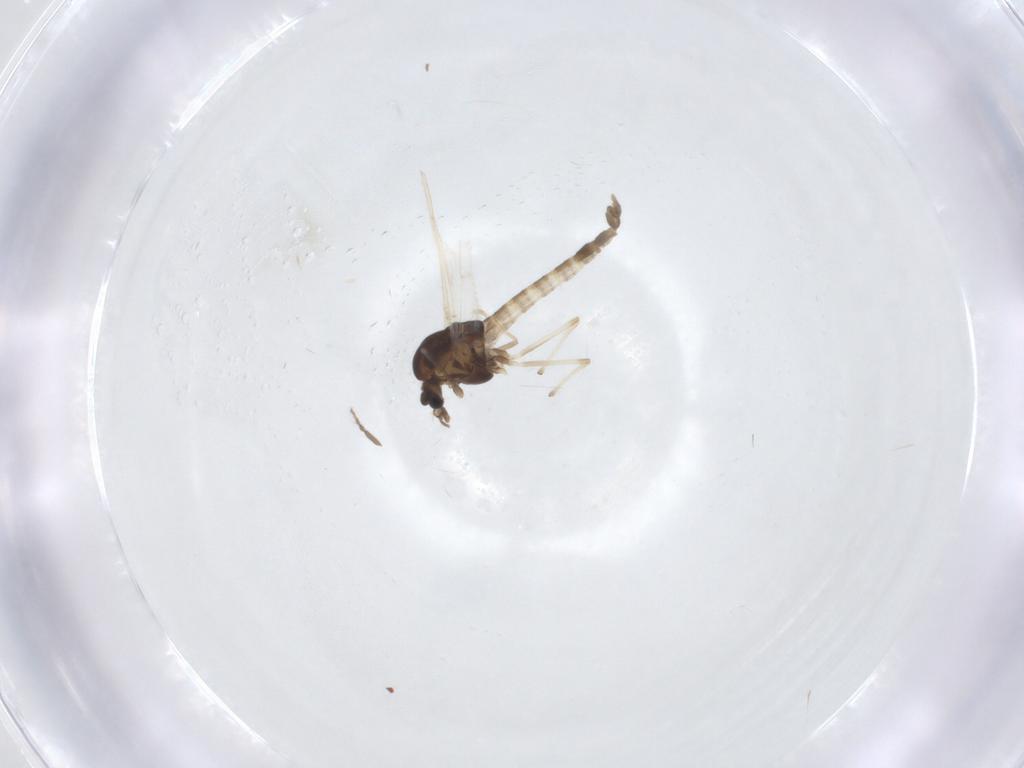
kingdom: Animalia
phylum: Arthropoda
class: Insecta
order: Diptera
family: Chironomidae
